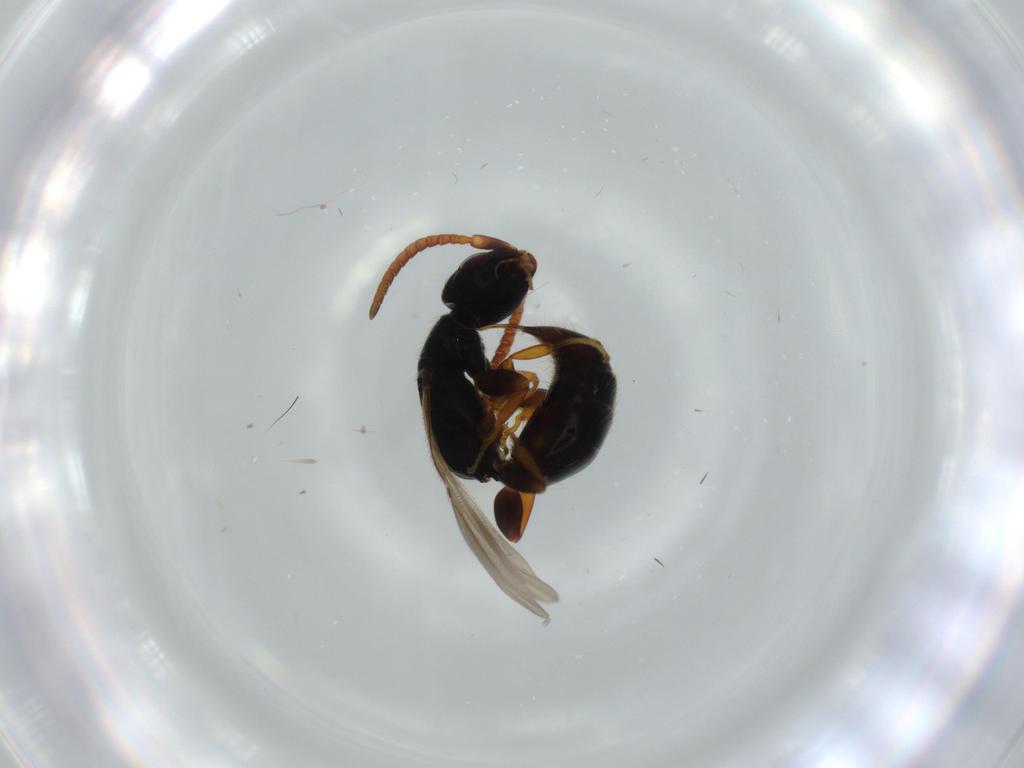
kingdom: Animalia
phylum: Arthropoda
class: Insecta
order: Hymenoptera
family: Bethylidae
